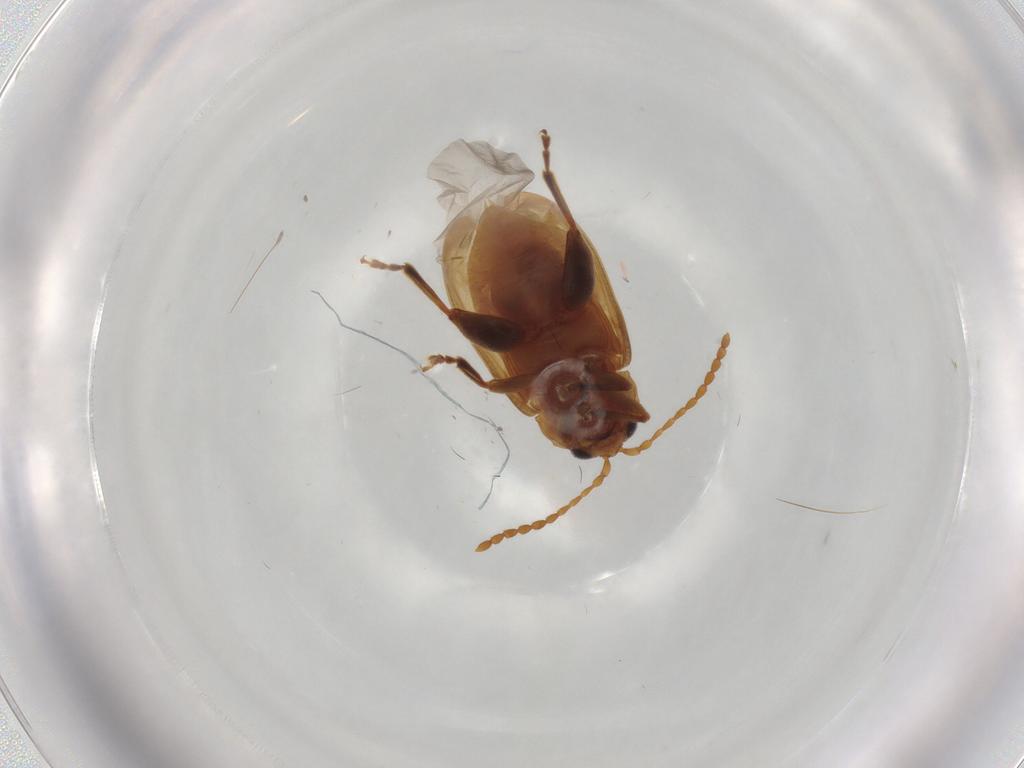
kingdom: Animalia
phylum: Arthropoda
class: Insecta
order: Coleoptera
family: Chrysomelidae
